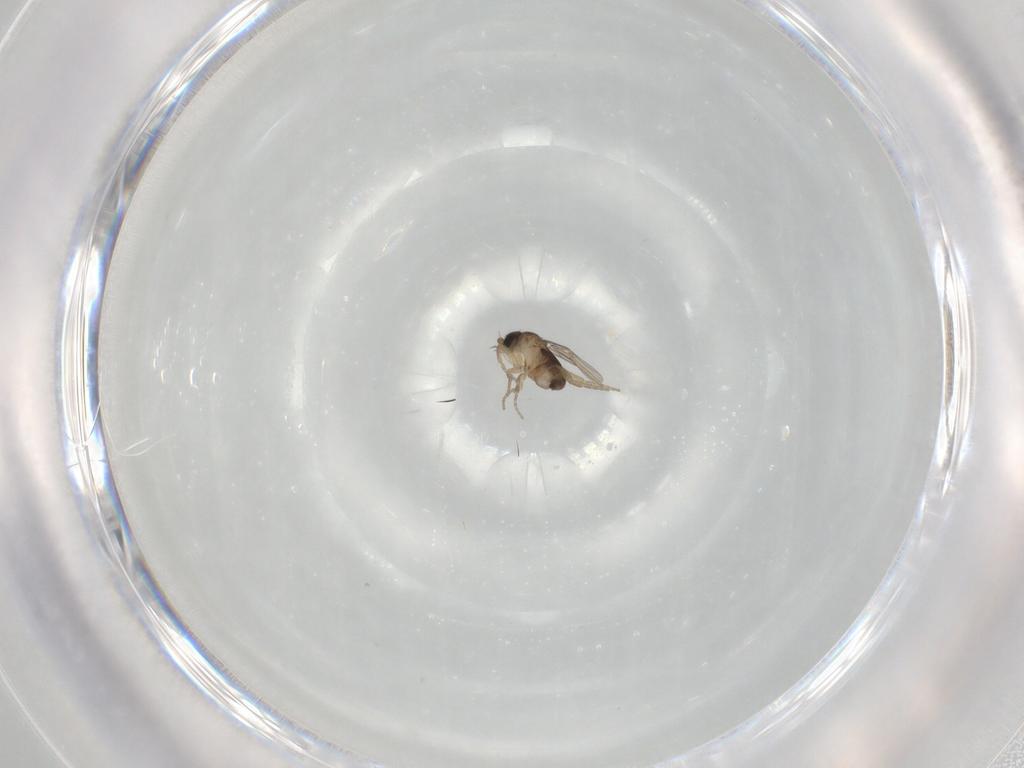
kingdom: Animalia
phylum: Arthropoda
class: Insecta
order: Diptera
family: Phoridae
